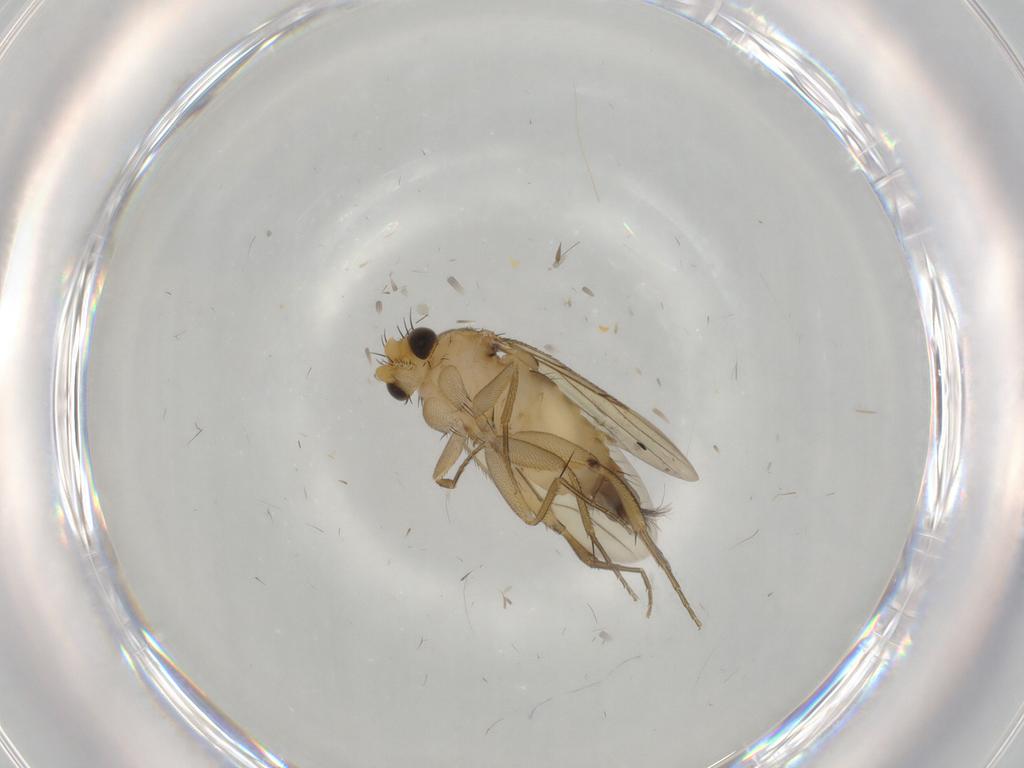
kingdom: Animalia
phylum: Arthropoda
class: Insecta
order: Diptera
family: Phoridae
